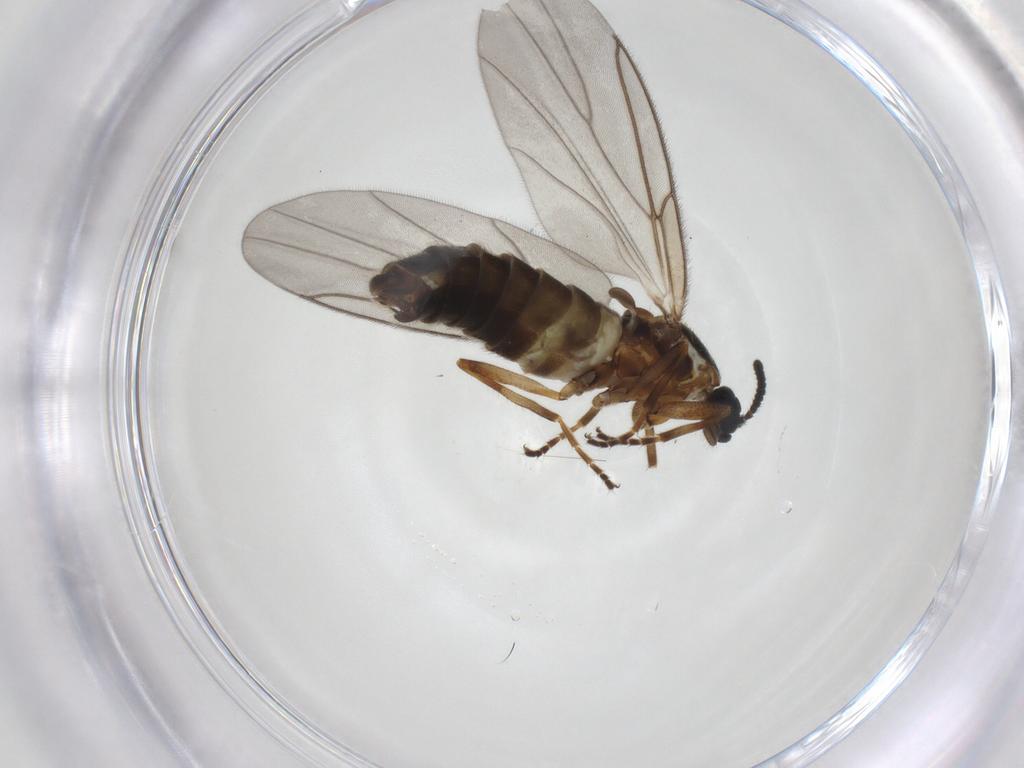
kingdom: Animalia
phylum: Arthropoda
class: Insecta
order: Diptera
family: Scatopsidae
